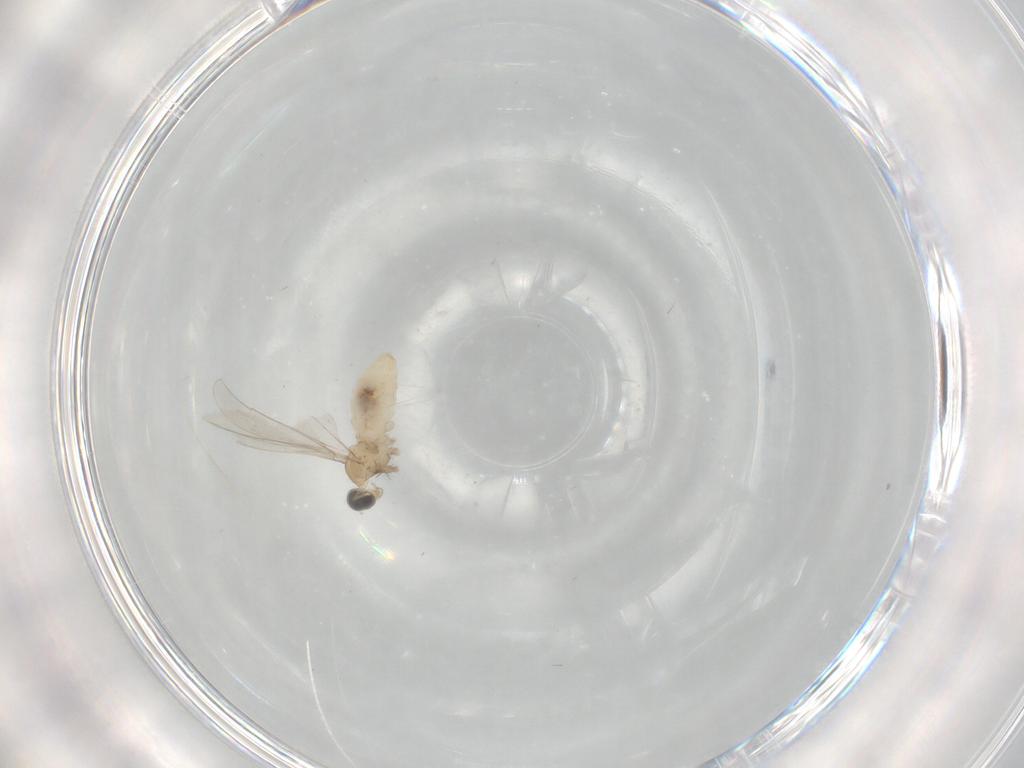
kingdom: Animalia
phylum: Arthropoda
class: Insecta
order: Diptera
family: Cecidomyiidae
